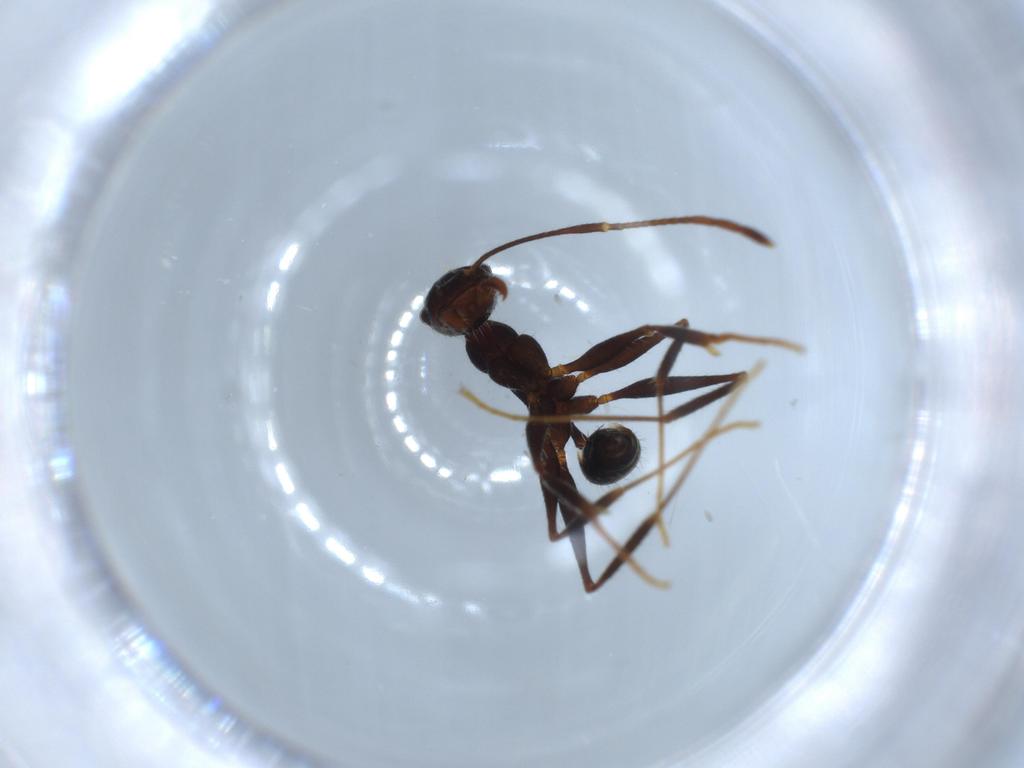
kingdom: Animalia
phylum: Arthropoda
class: Insecta
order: Hymenoptera
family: Formicidae
